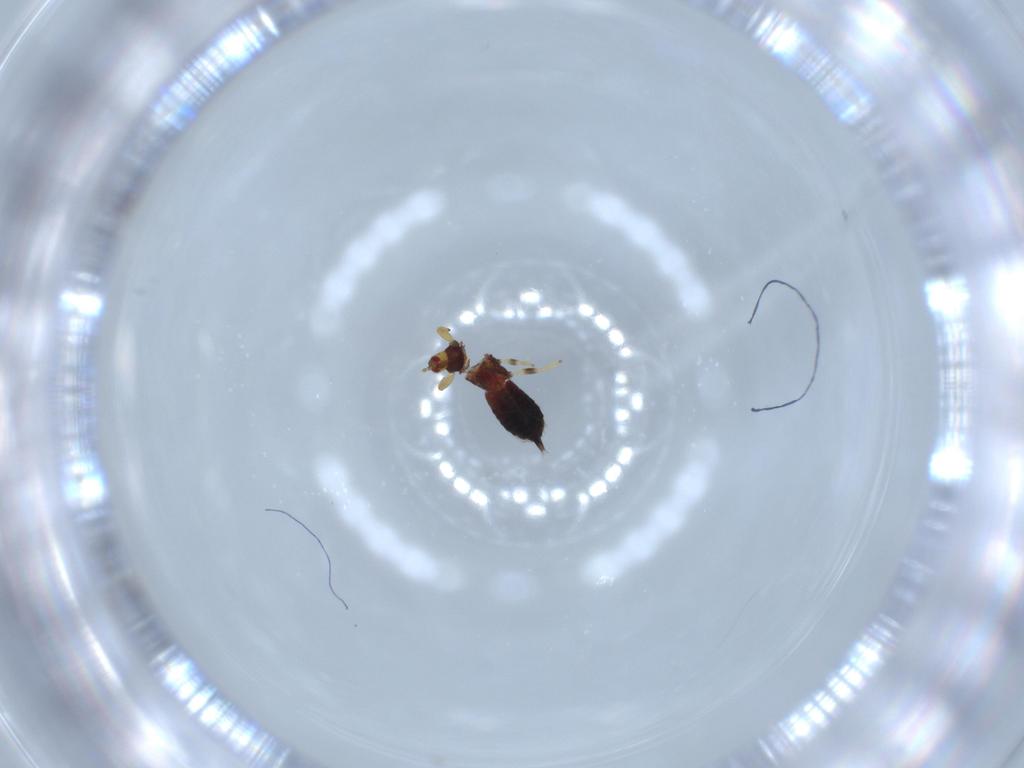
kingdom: Animalia
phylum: Arthropoda
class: Insecta
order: Thysanoptera
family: Phlaeothripidae
